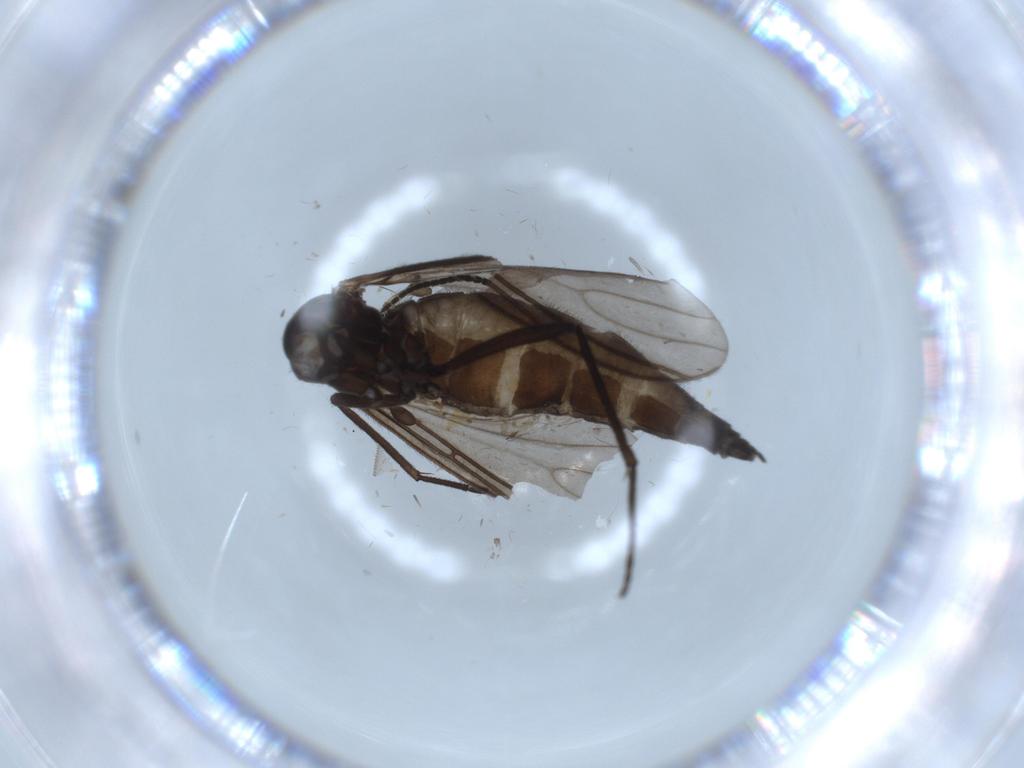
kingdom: Animalia
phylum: Arthropoda
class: Insecta
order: Diptera
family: Sciaridae
